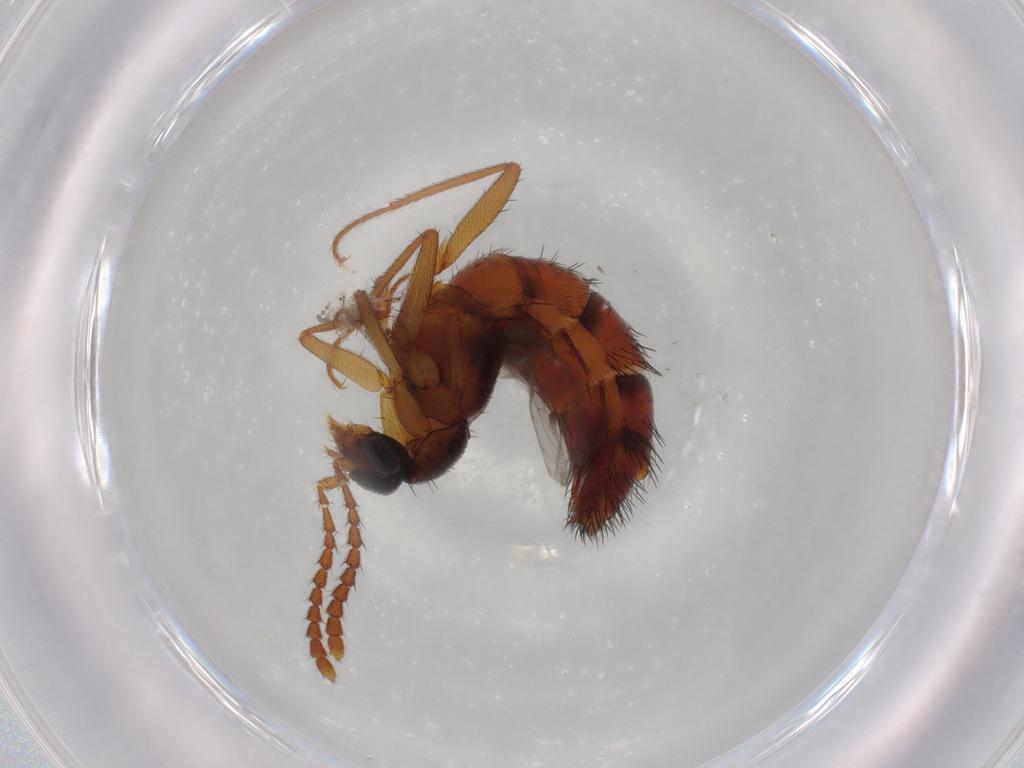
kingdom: Animalia
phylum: Arthropoda
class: Insecta
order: Coleoptera
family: Staphylinidae
